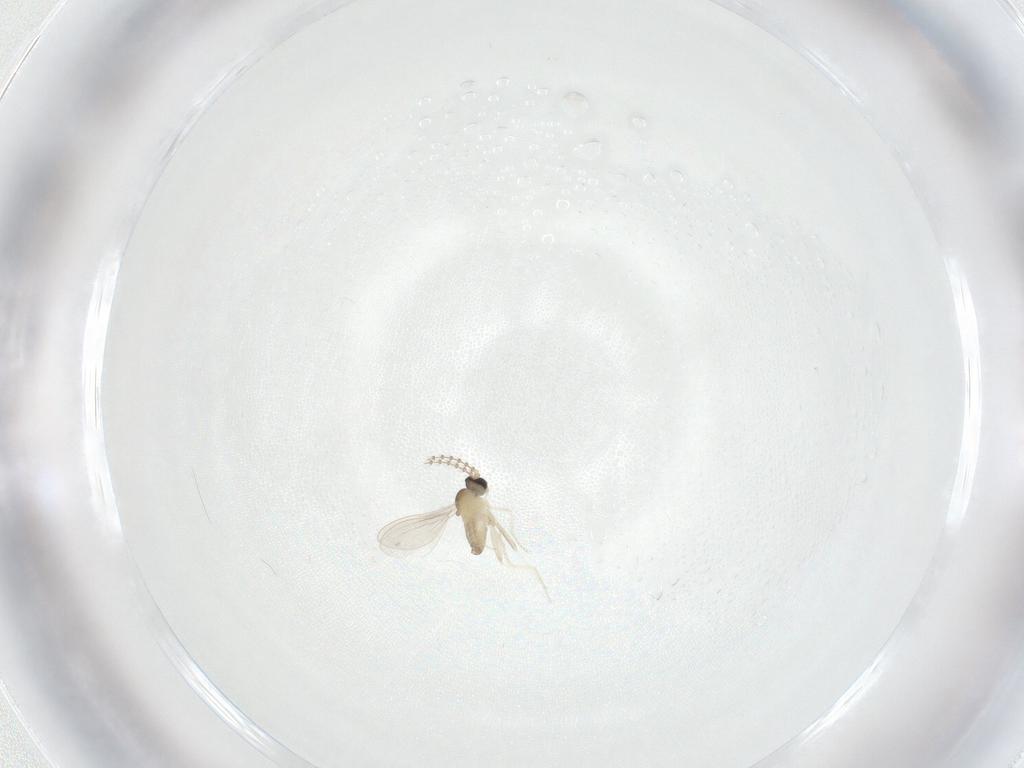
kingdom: Animalia
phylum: Arthropoda
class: Insecta
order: Diptera
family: Cecidomyiidae
